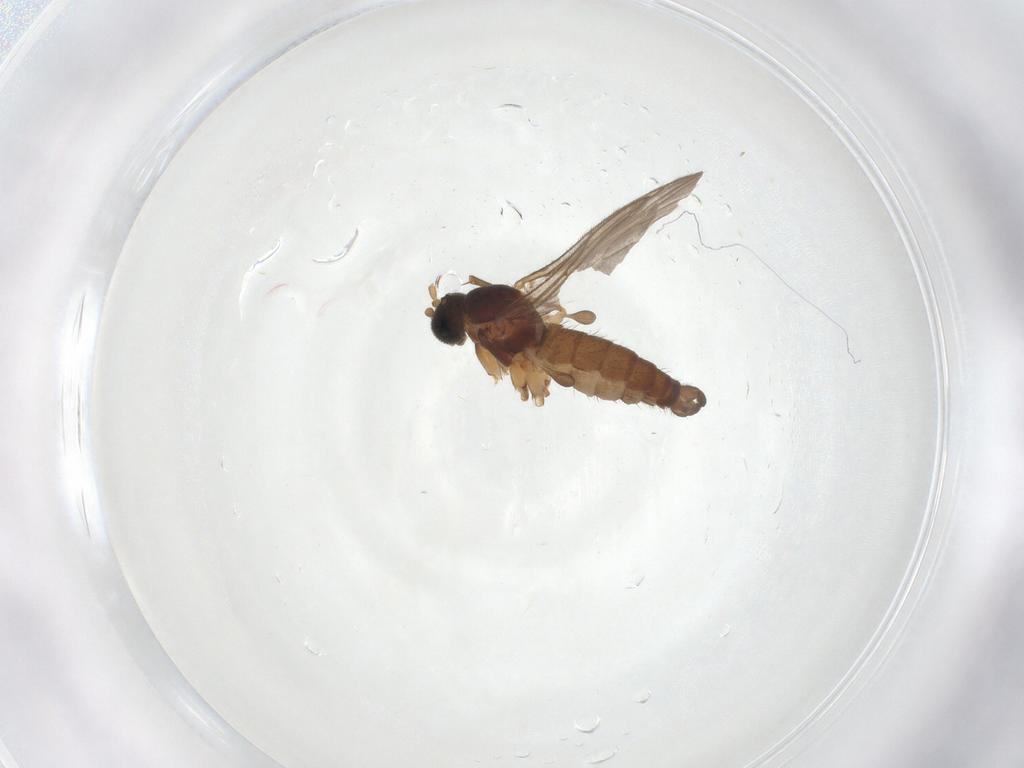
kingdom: Animalia
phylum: Arthropoda
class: Insecta
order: Diptera
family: Sciaridae
